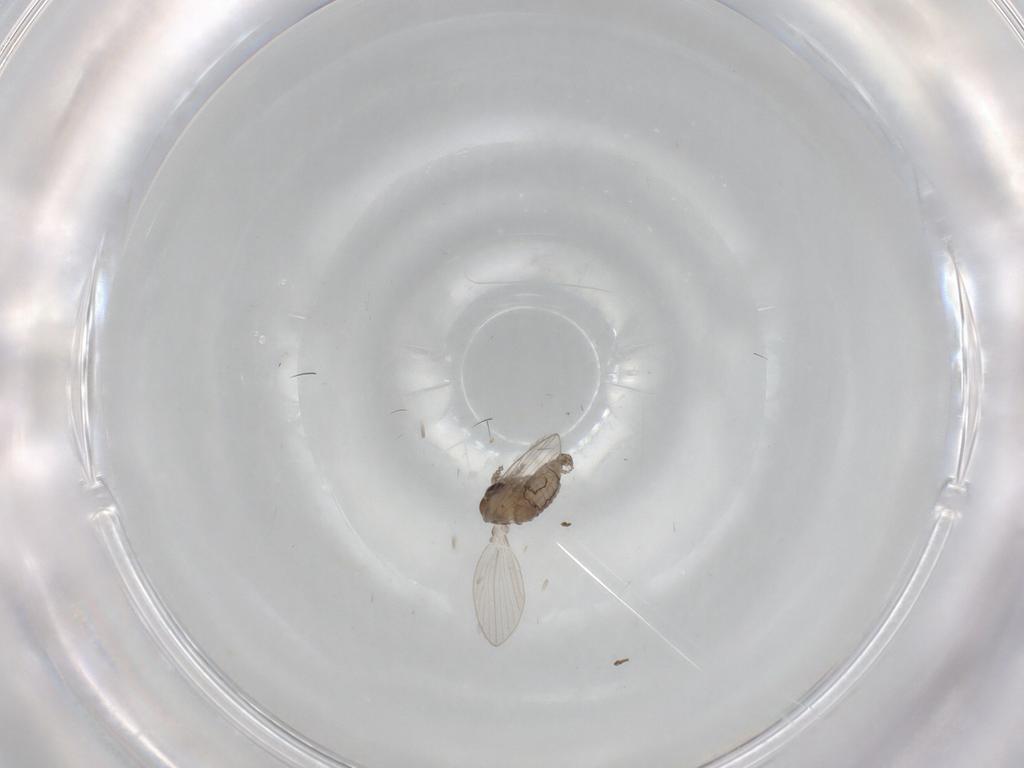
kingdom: Animalia
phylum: Arthropoda
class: Insecta
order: Diptera
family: Psychodidae
